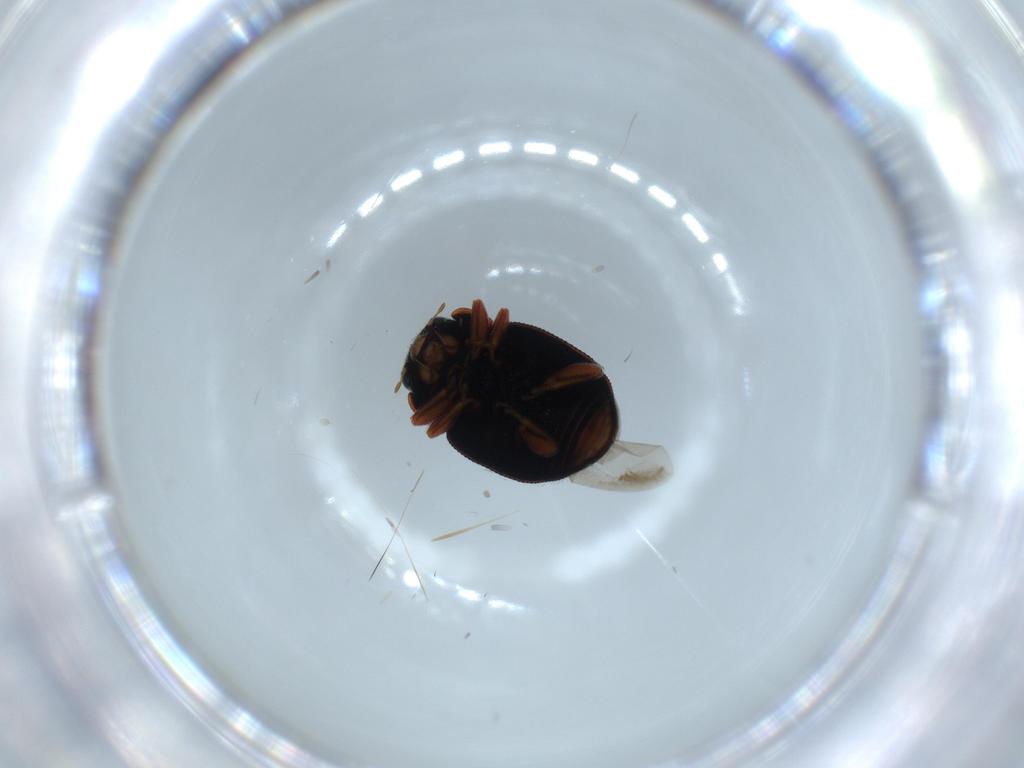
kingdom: Animalia
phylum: Arthropoda
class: Insecta
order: Coleoptera
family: Coccinellidae
